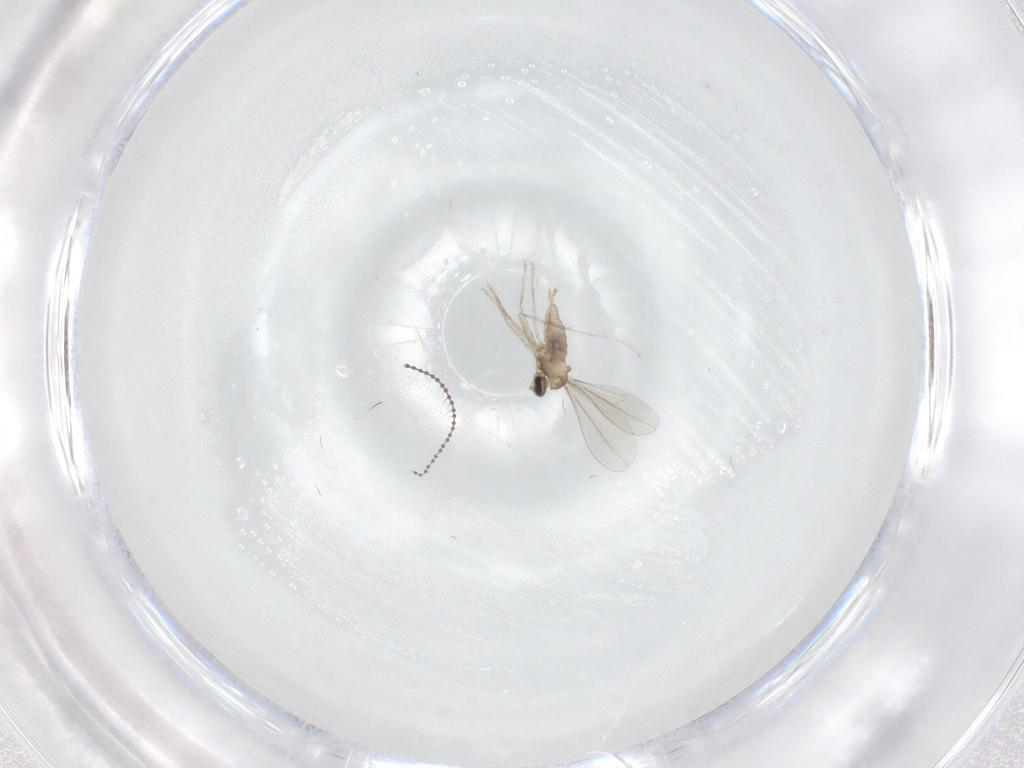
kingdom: Animalia
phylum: Arthropoda
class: Insecta
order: Diptera
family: Cecidomyiidae
